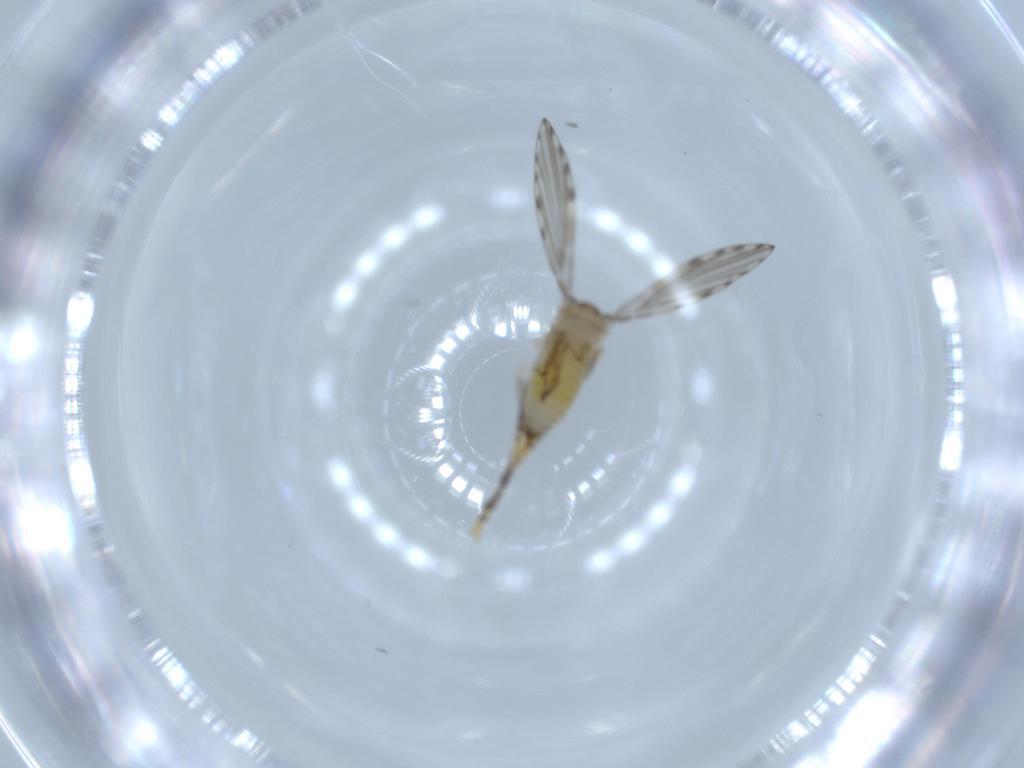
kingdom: Animalia
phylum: Arthropoda
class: Insecta
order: Diptera
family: Psychodidae
